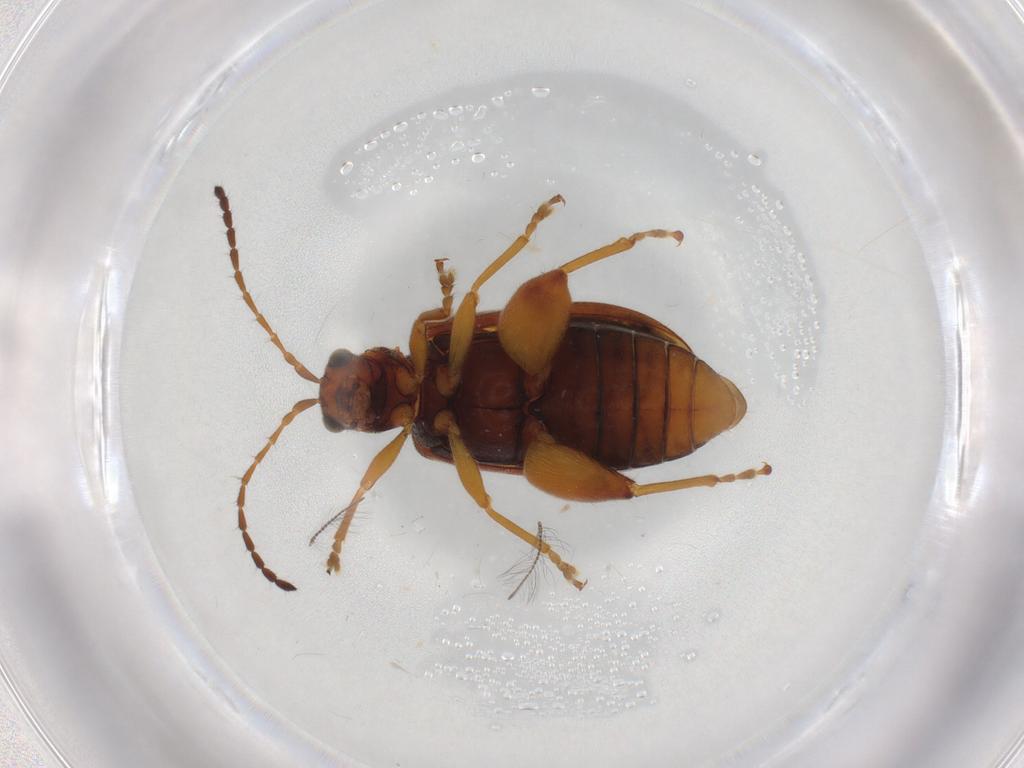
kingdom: Animalia
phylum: Arthropoda
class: Insecta
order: Coleoptera
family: Chrysomelidae
